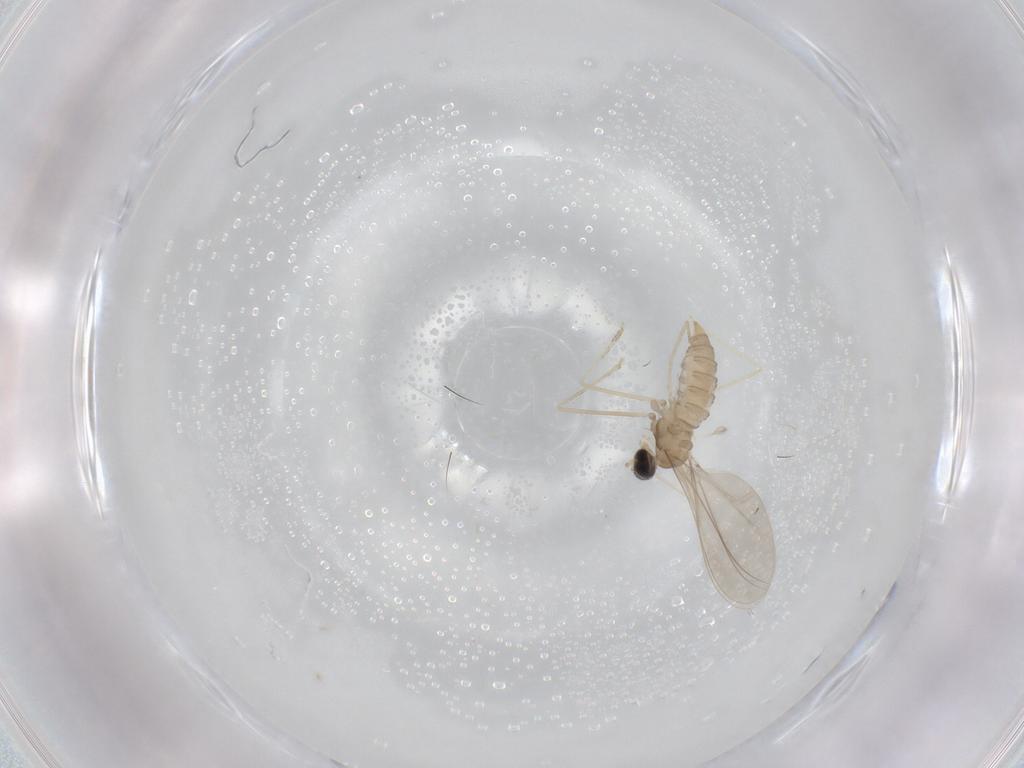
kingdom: Animalia
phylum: Arthropoda
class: Insecta
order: Diptera
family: Cecidomyiidae
